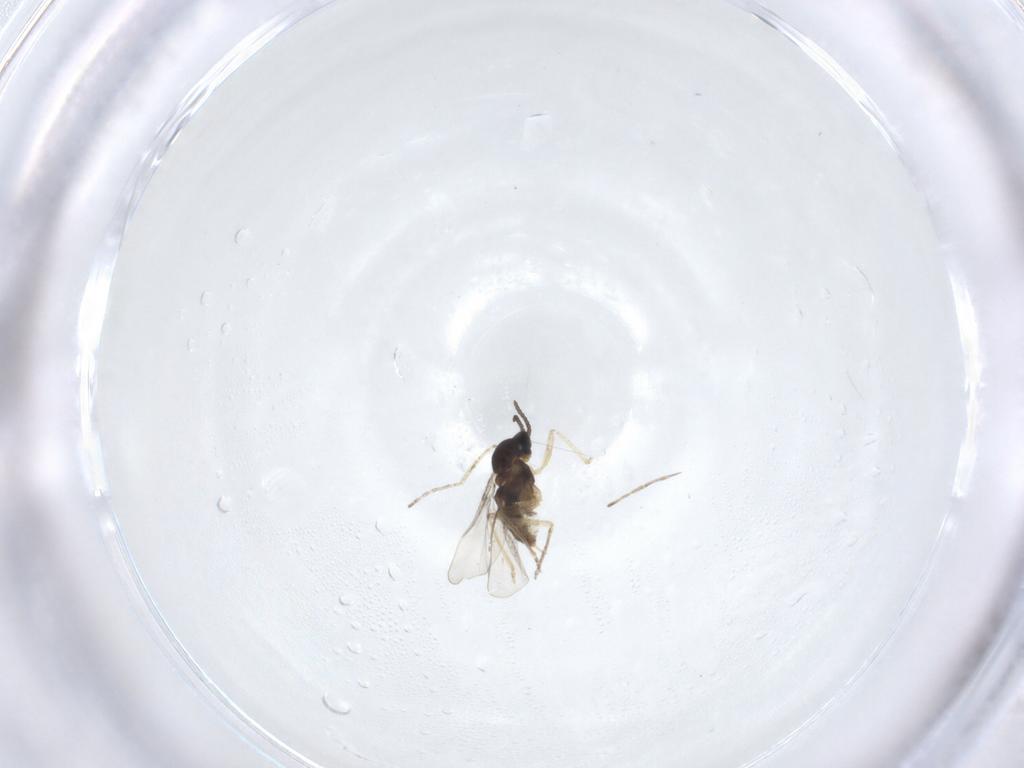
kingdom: Animalia
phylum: Arthropoda
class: Insecta
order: Diptera
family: Cecidomyiidae
